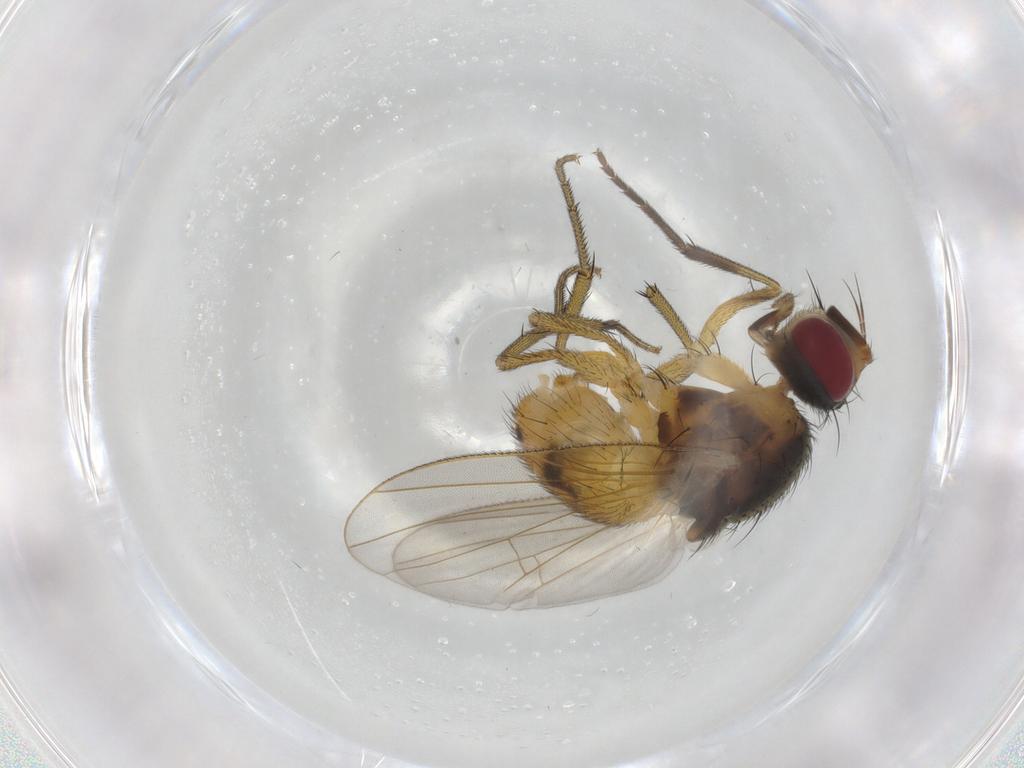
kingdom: Animalia
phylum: Arthropoda
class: Insecta
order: Diptera
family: Muscidae
